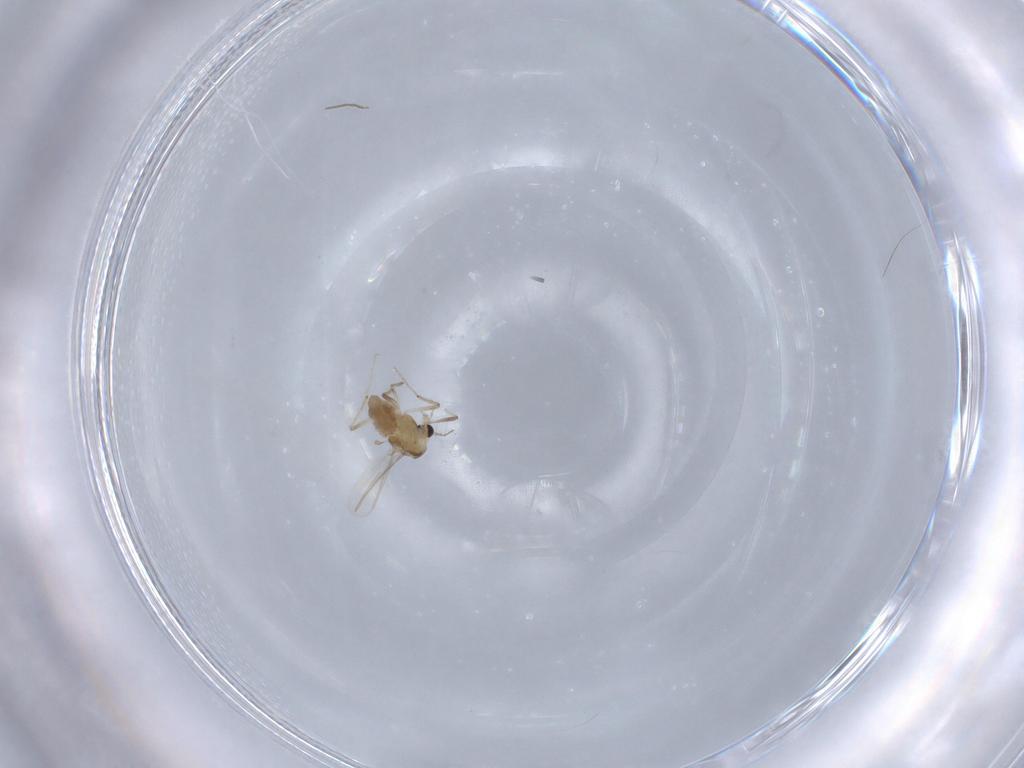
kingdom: Animalia
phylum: Arthropoda
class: Insecta
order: Diptera
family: Chironomidae
